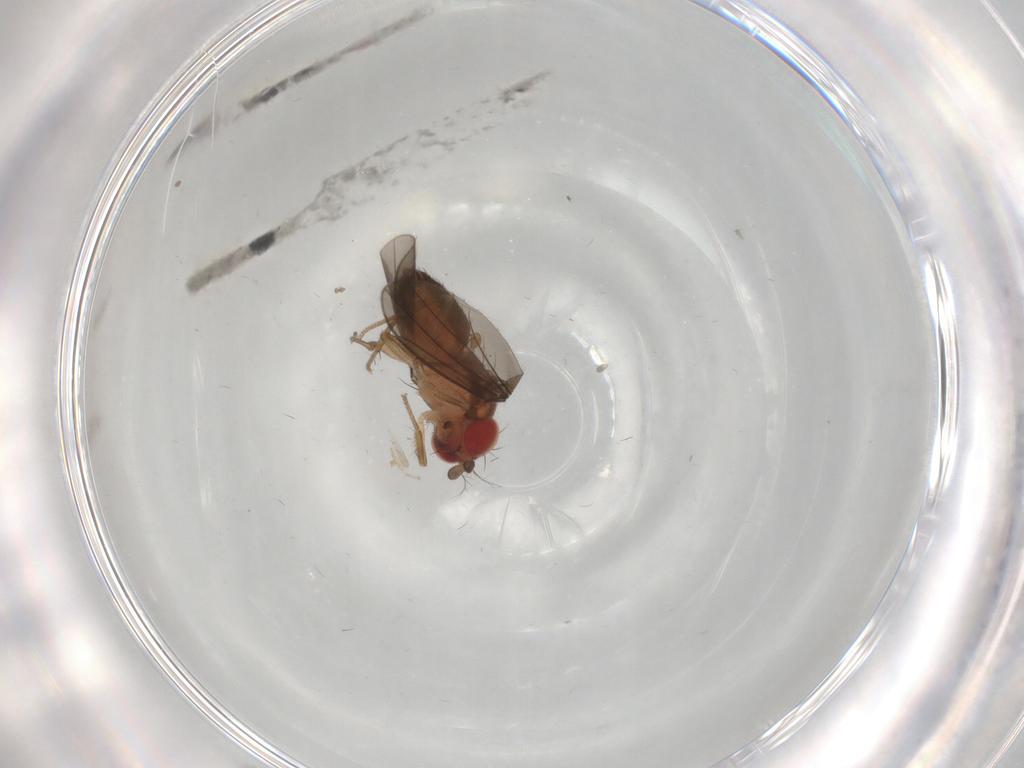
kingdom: Animalia
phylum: Arthropoda
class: Insecta
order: Diptera
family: Drosophilidae
